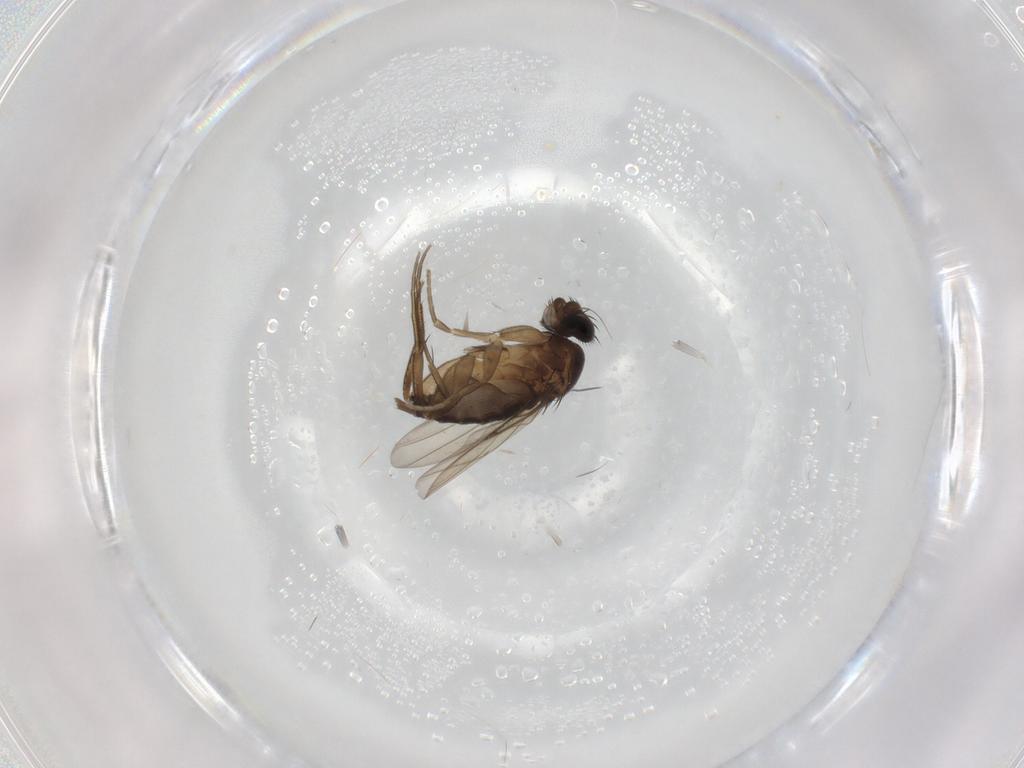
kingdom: Animalia
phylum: Arthropoda
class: Insecta
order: Diptera
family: Phoridae
